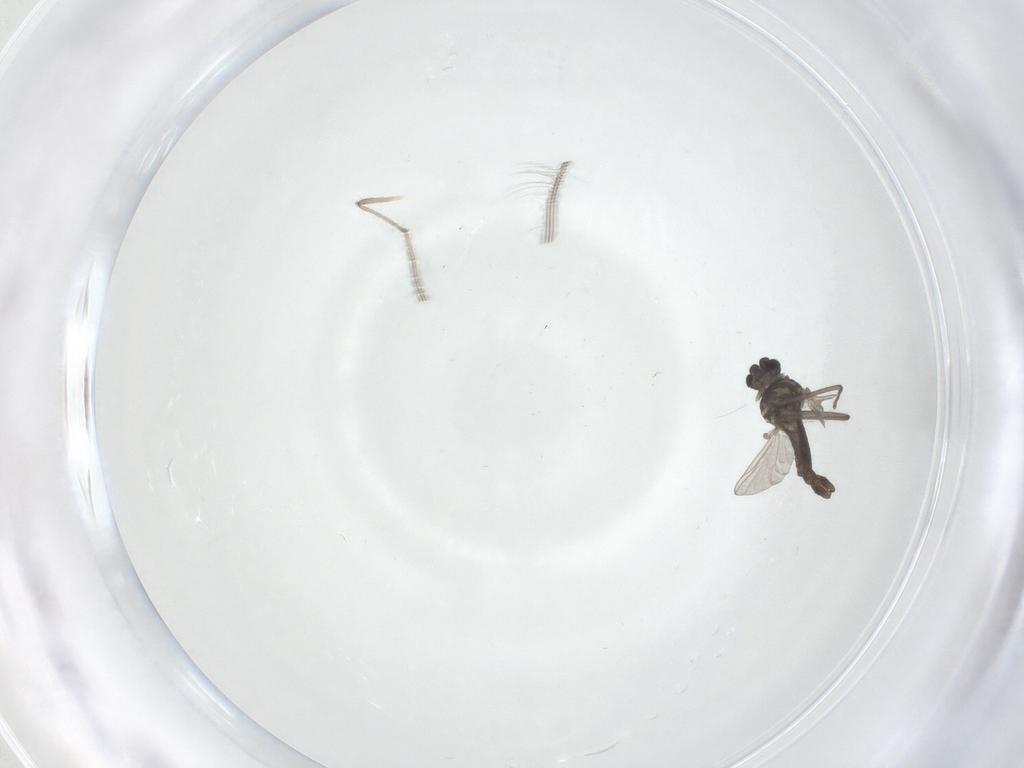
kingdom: Animalia
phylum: Arthropoda
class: Insecta
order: Diptera
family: Chironomidae
